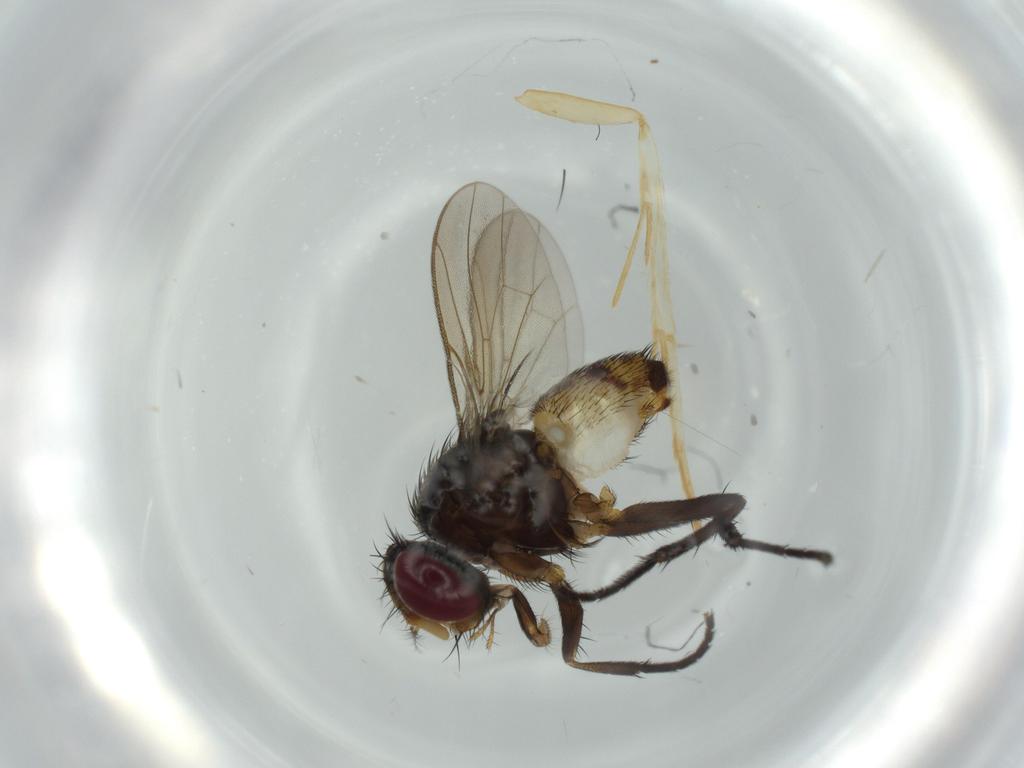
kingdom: Animalia
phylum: Arthropoda
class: Insecta
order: Diptera
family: Anthomyiidae
